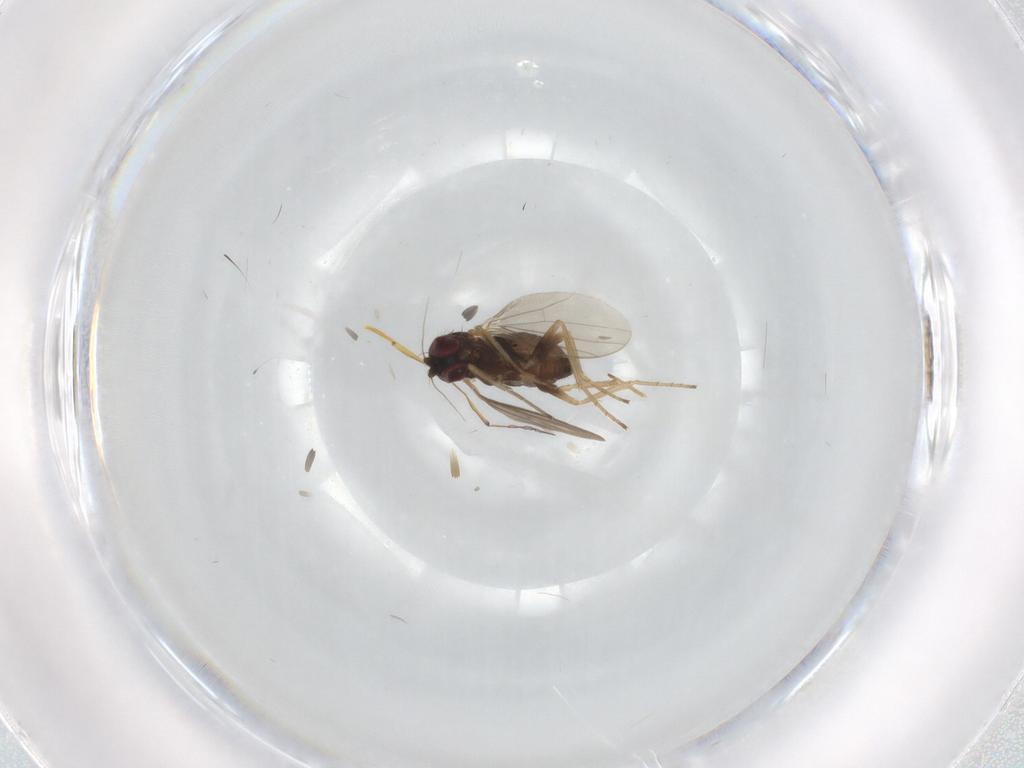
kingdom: Animalia
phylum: Arthropoda
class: Insecta
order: Diptera
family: Dolichopodidae
